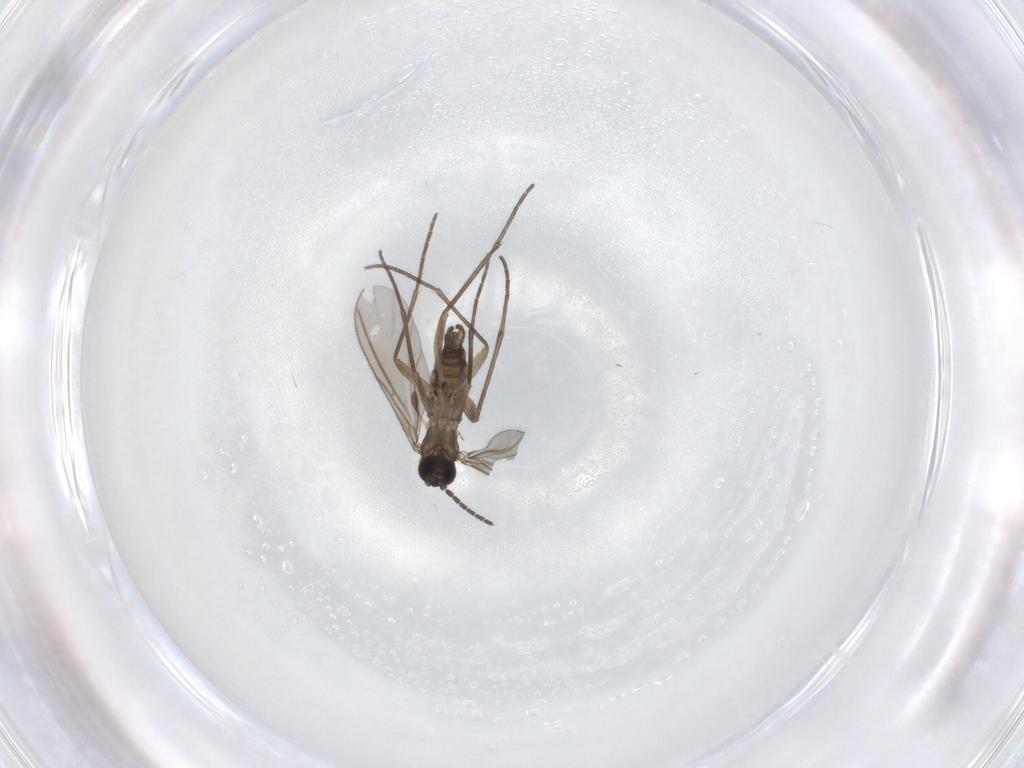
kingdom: Animalia
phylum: Arthropoda
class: Insecta
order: Diptera
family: Sciaridae
